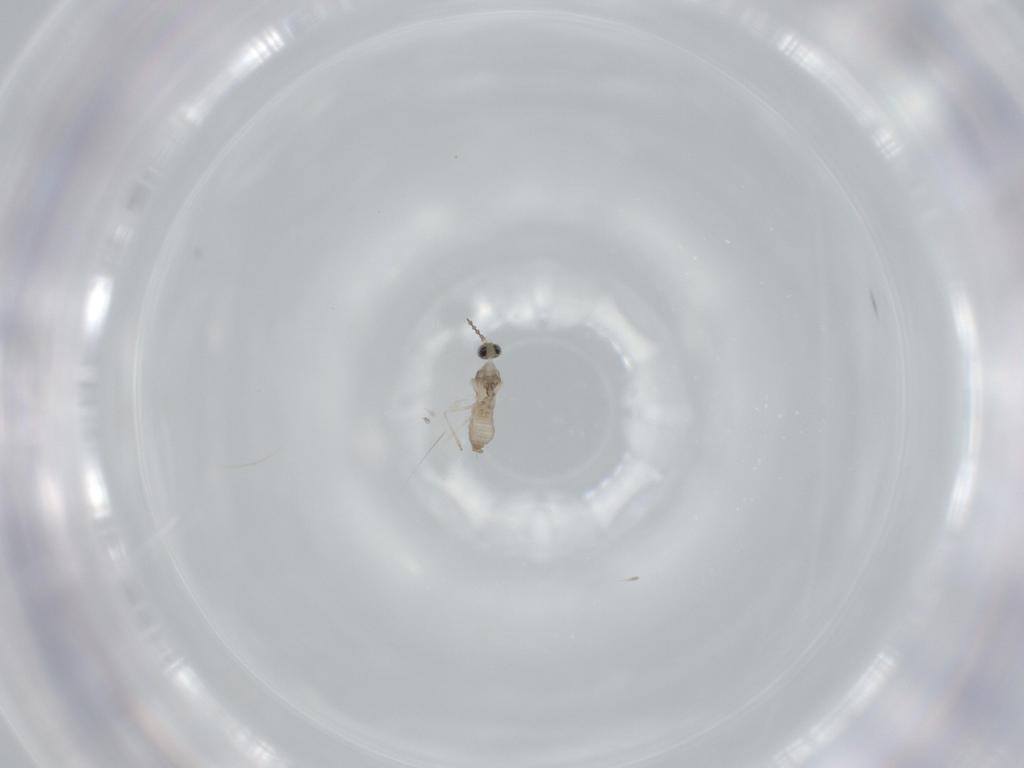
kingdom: Animalia
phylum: Arthropoda
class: Insecta
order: Diptera
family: Cecidomyiidae
